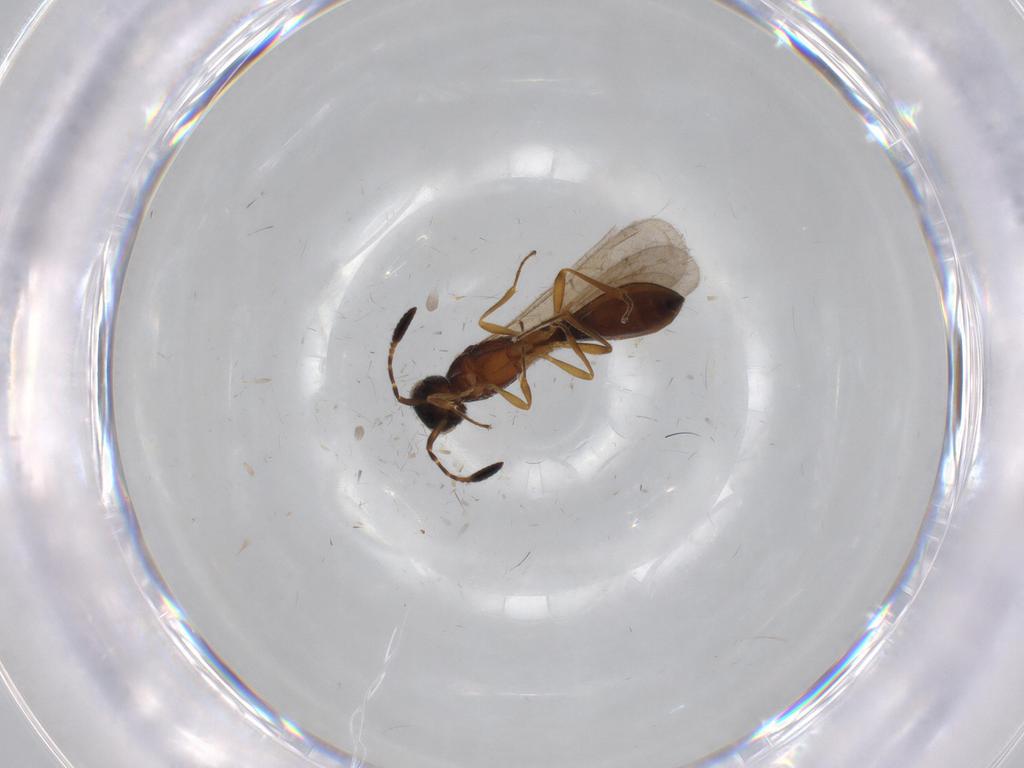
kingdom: Animalia
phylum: Arthropoda
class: Insecta
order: Hymenoptera
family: Scelionidae
